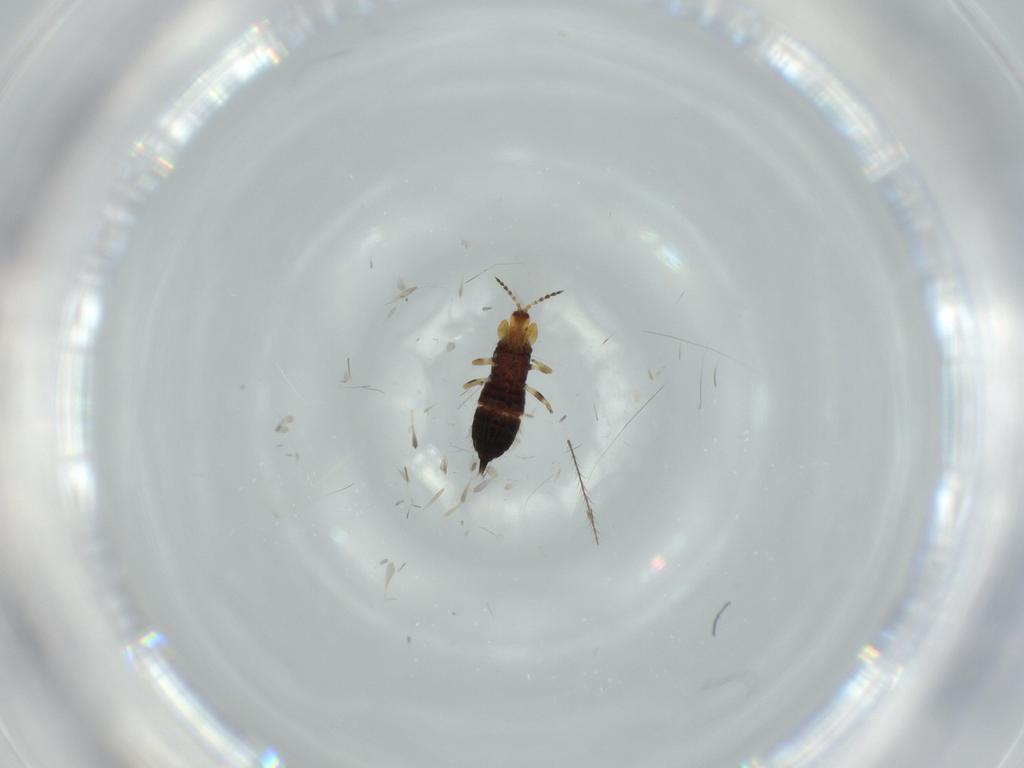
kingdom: Animalia
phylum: Arthropoda
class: Insecta
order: Thysanoptera
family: Phlaeothripidae
